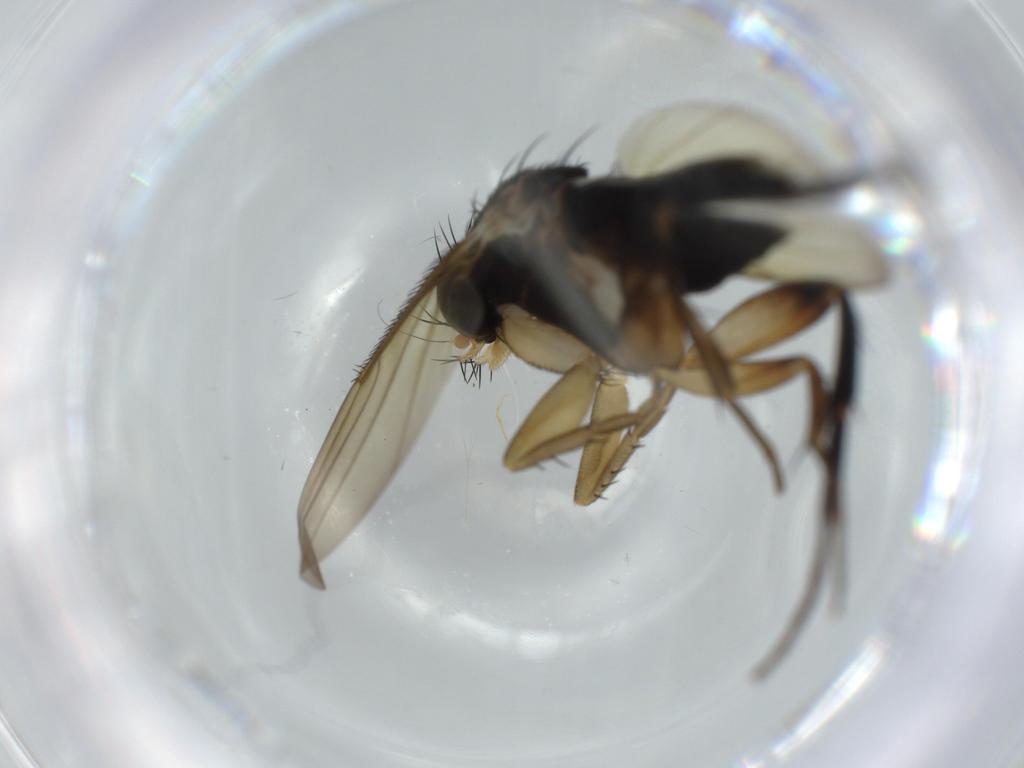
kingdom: Animalia
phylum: Arthropoda
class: Insecta
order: Diptera
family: Phoridae
